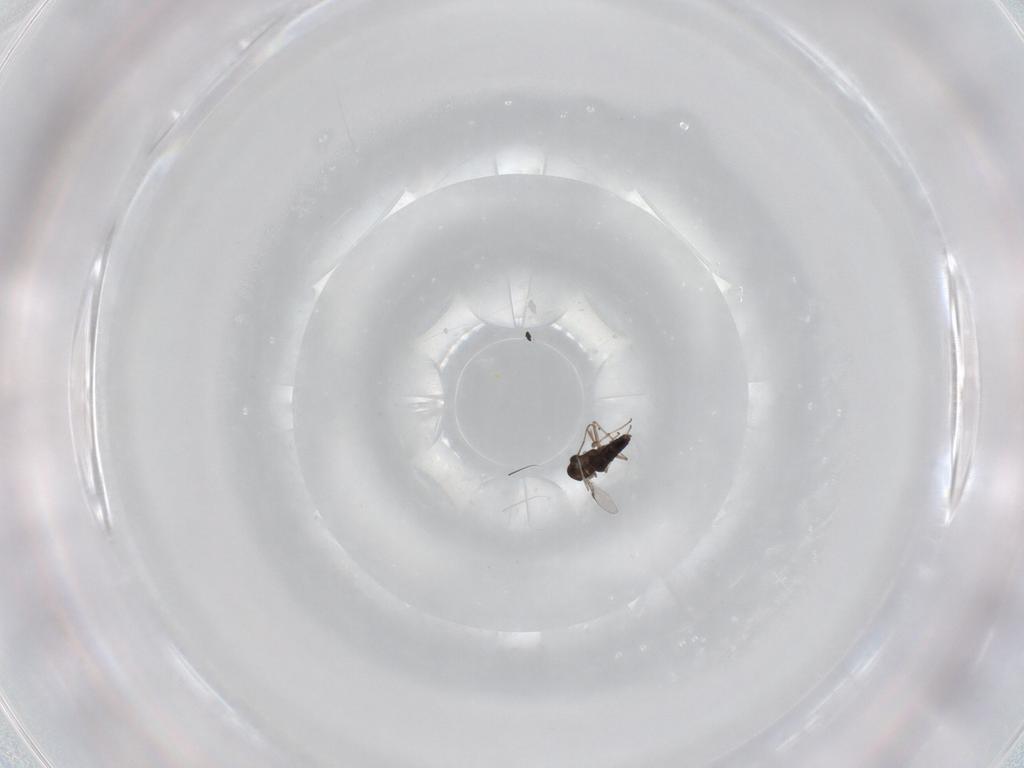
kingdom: Animalia
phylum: Arthropoda
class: Insecta
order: Diptera
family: Chironomidae
